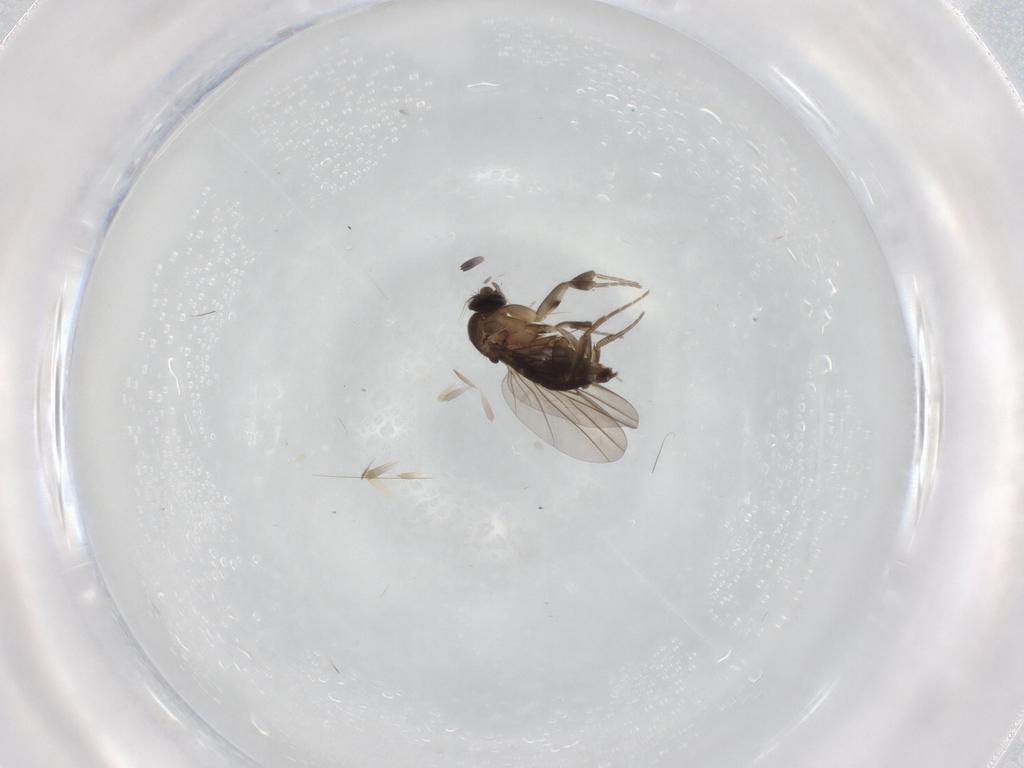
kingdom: Animalia
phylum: Arthropoda
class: Insecta
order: Diptera
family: Phoridae
